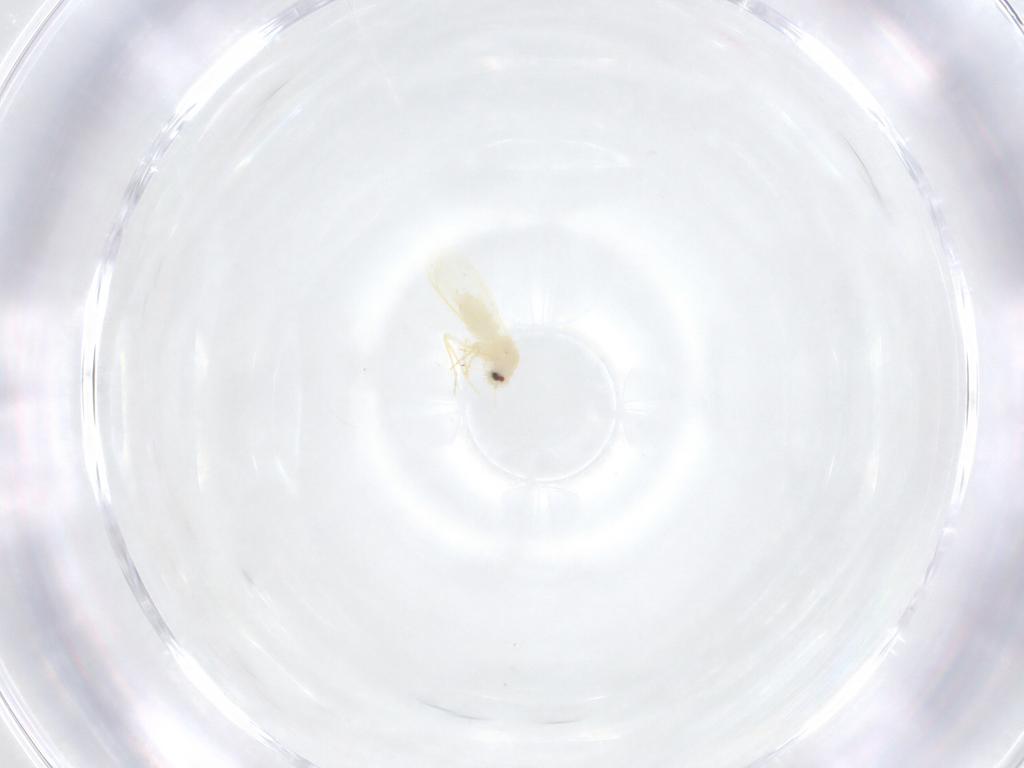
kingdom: Animalia
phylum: Arthropoda
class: Insecta
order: Hemiptera
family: Aleyrodidae
